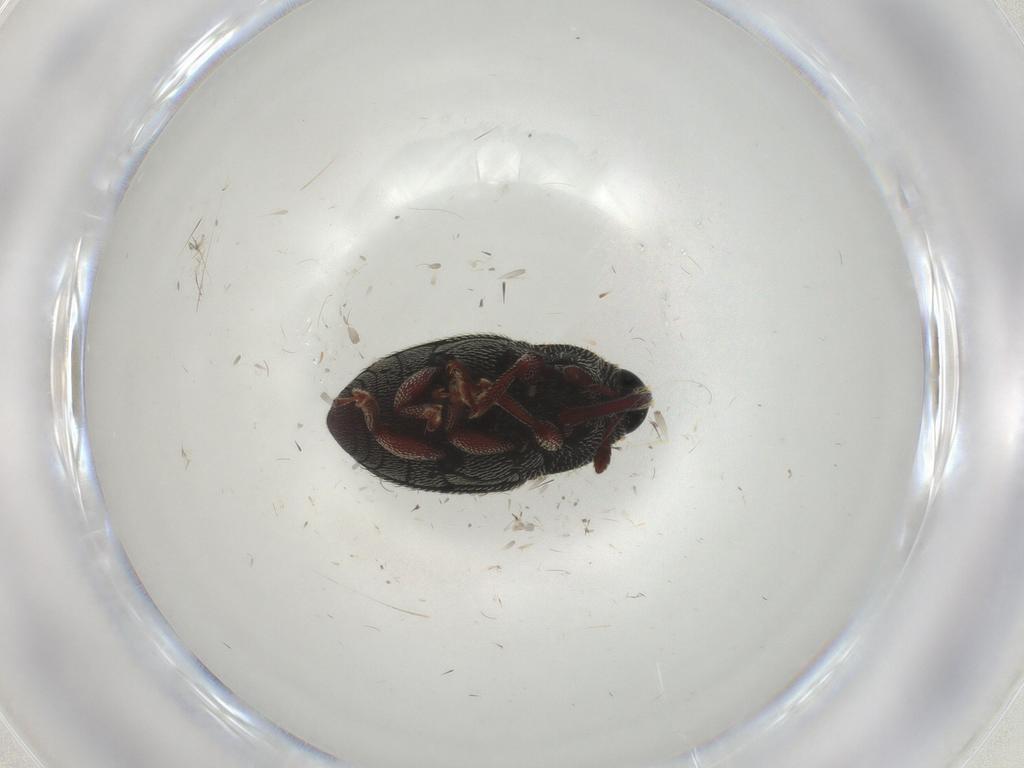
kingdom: Animalia
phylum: Arthropoda
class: Insecta
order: Coleoptera
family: Curculionidae
